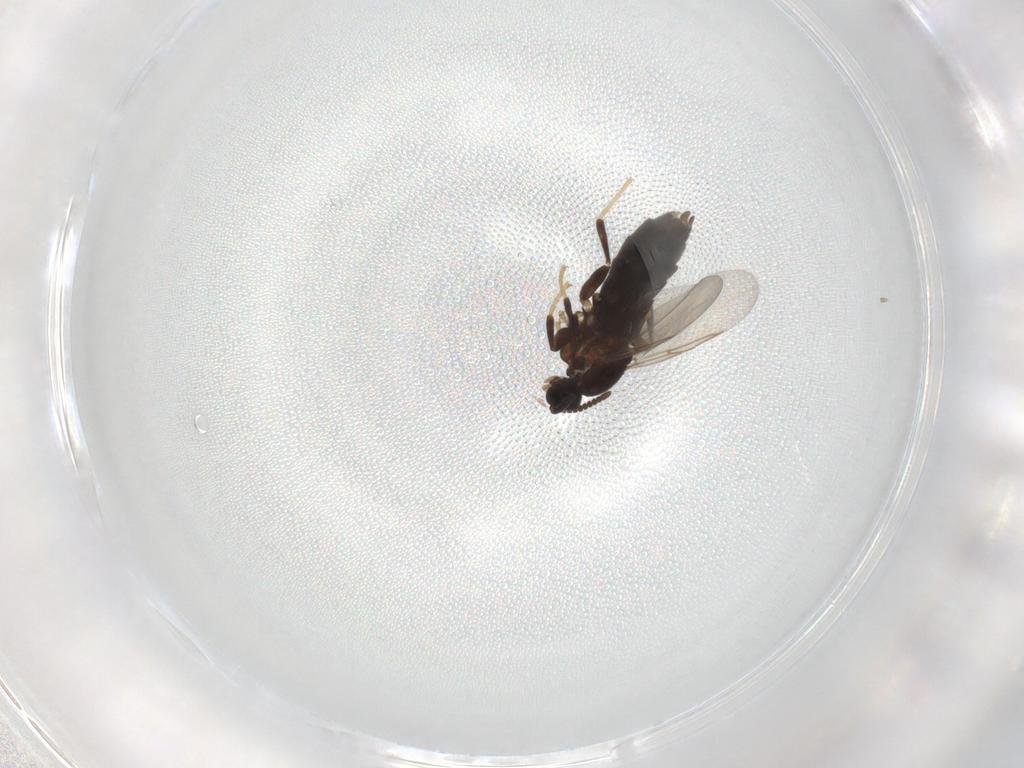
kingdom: Animalia
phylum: Arthropoda
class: Insecta
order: Diptera
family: Scatopsidae
